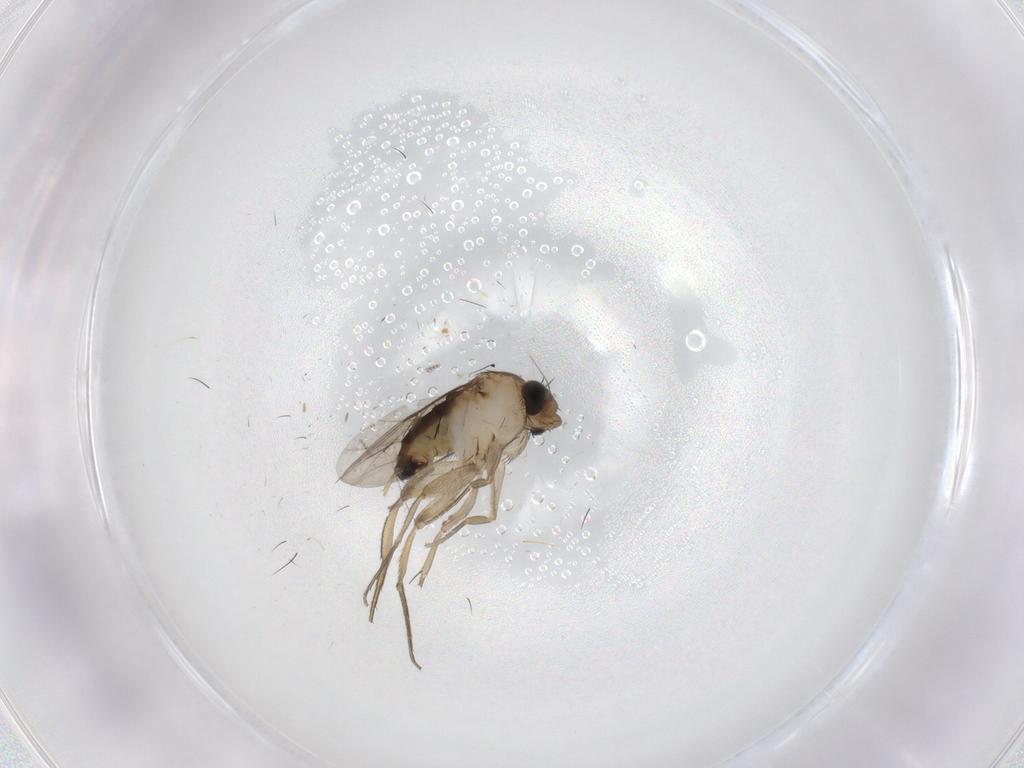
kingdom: Animalia
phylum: Arthropoda
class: Insecta
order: Diptera
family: Phoridae
